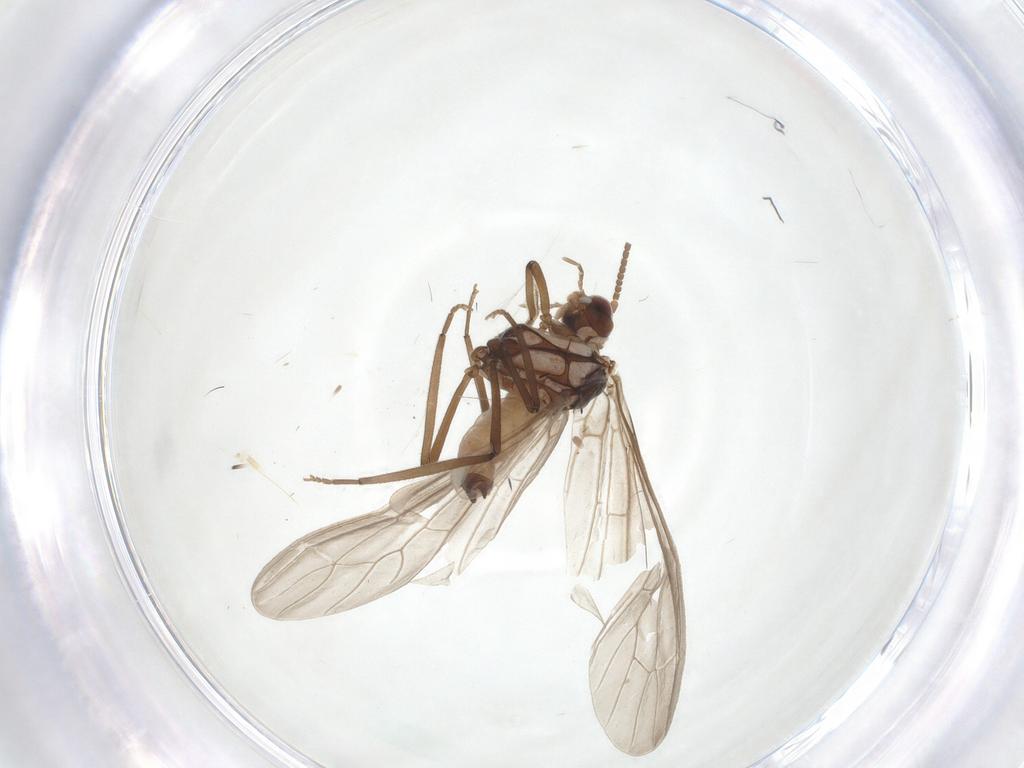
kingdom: Animalia
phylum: Arthropoda
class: Insecta
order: Neuroptera
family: Coniopterygidae
